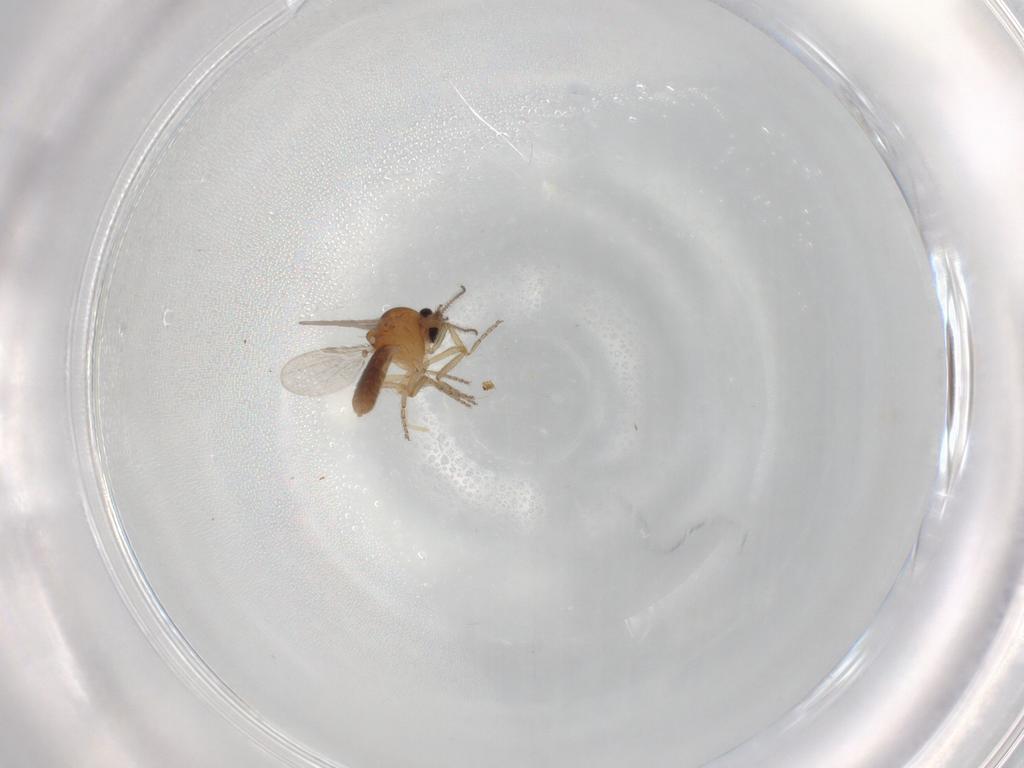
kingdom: Animalia
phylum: Arthropoda
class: Insecta
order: Diptera
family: Ceratopogonidae
